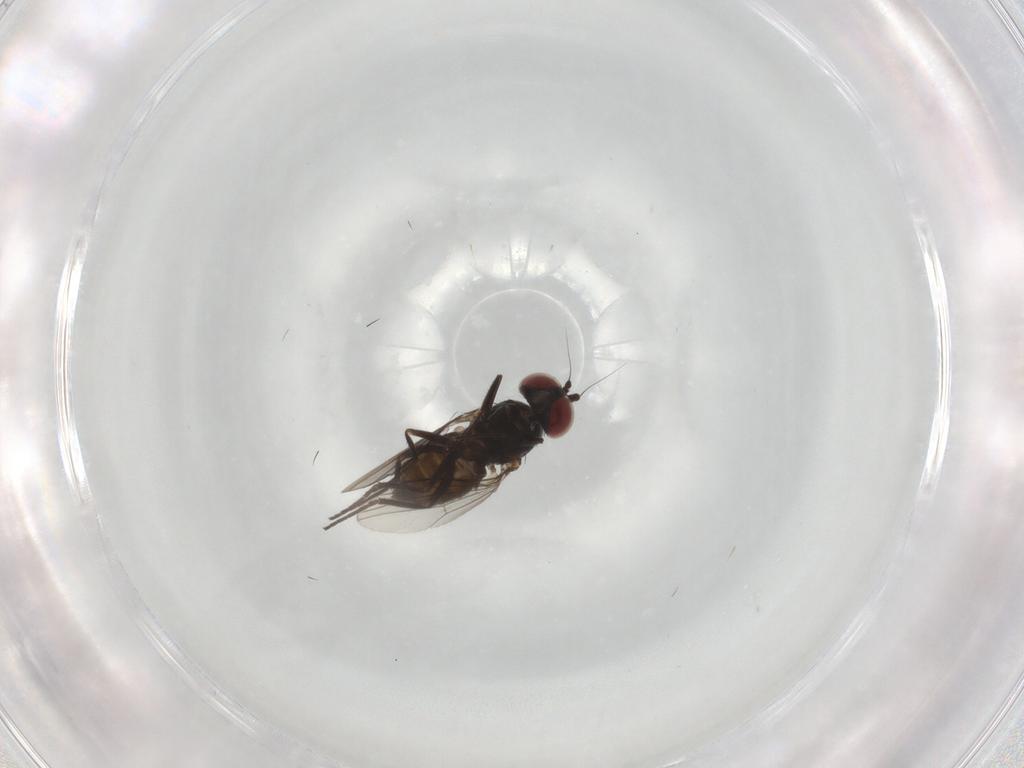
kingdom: Animalia
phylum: Arthropoda
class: Insecta
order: Diptera
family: Dolichopodidae
